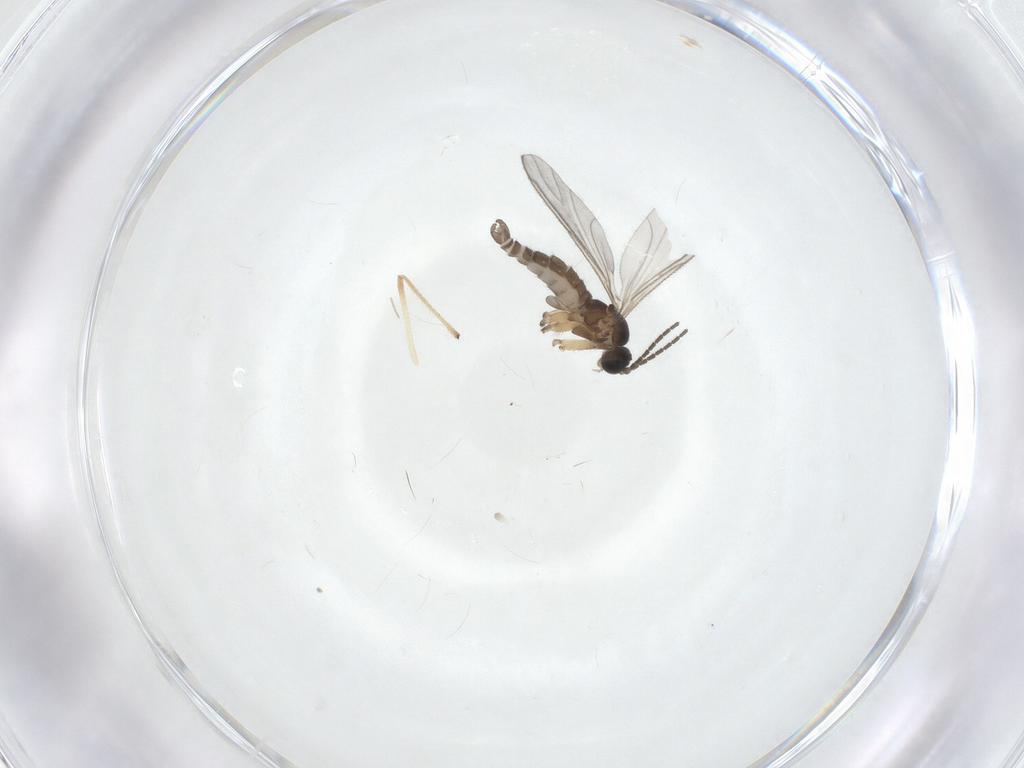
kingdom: Animalia
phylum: Arthropoda
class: Insecta
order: Diptera
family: Sciaridae
